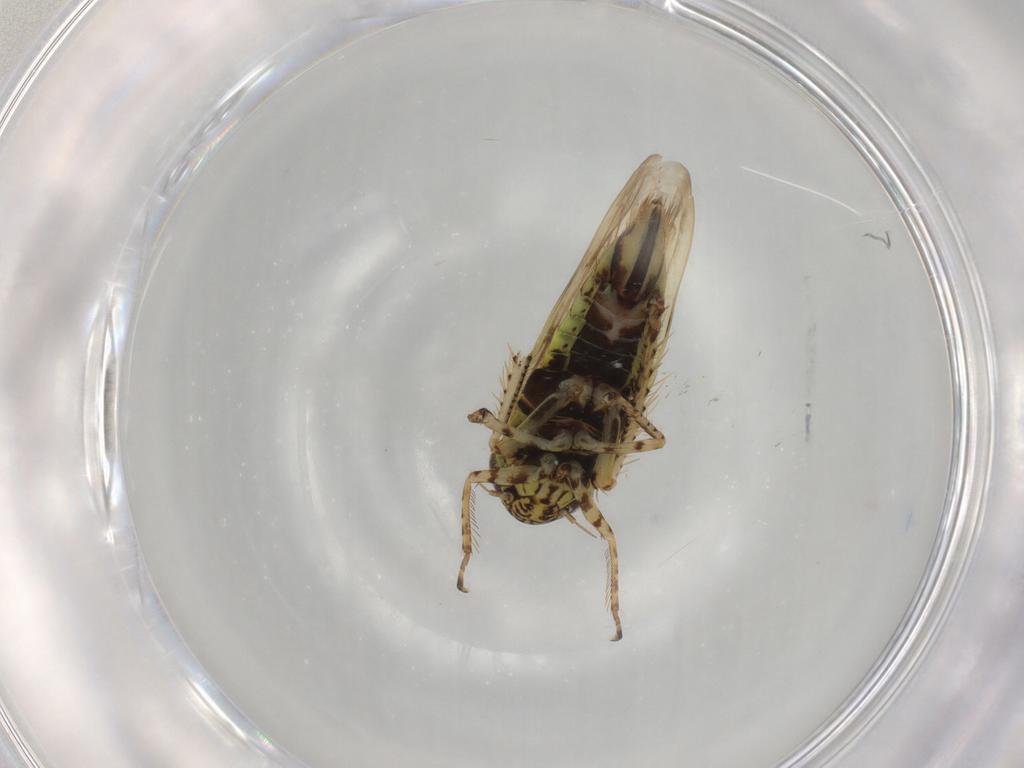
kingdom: Animalia
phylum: Arthropoda
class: Insecta
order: Hemiptera
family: Cicadellidae
